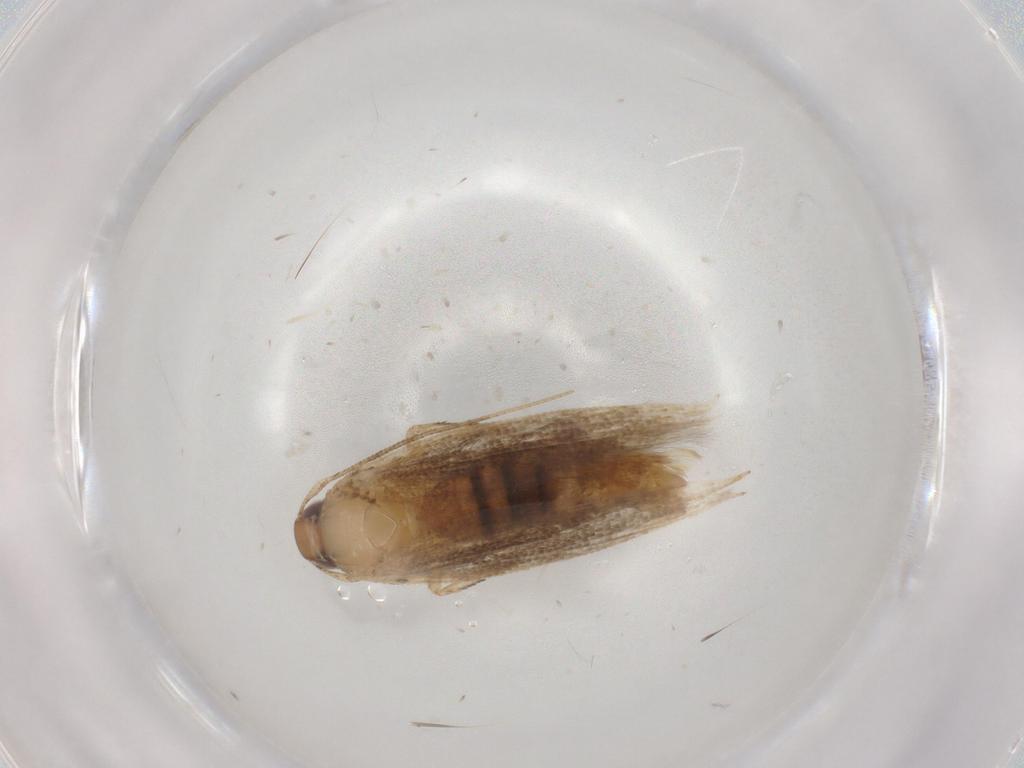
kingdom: Animalia
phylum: Arthropoda
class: Insecta
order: Lepidoptera
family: Cosmopterigidae
